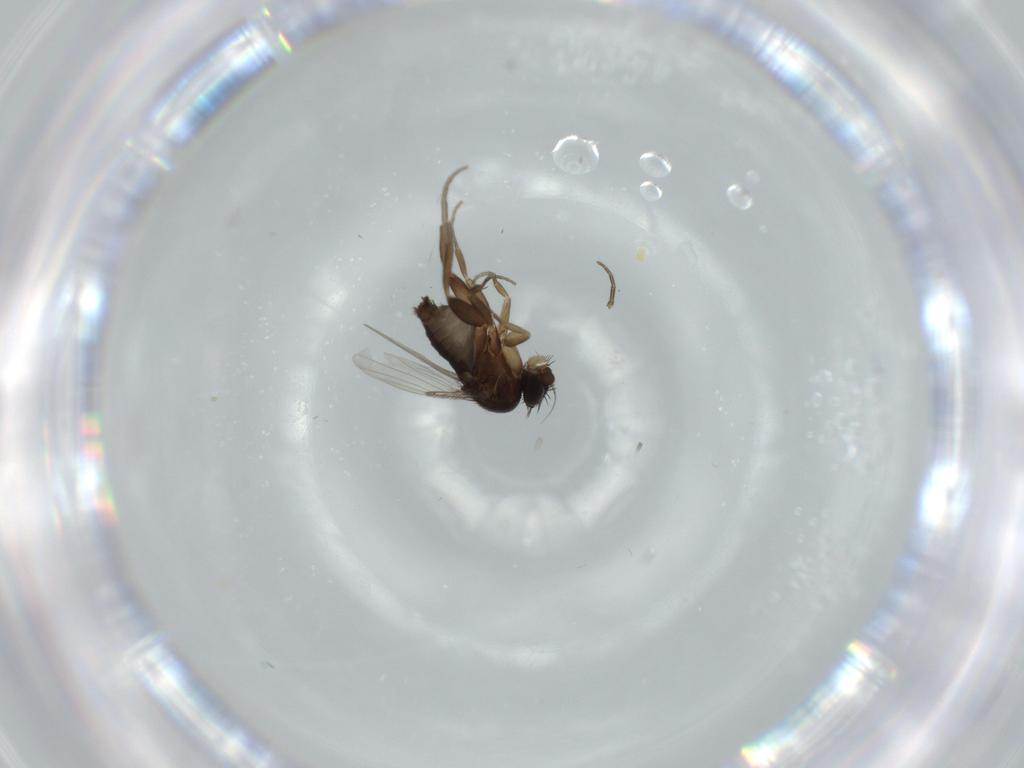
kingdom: Animalia
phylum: Arthropoda
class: Insecta
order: Diptera
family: Phoridae
